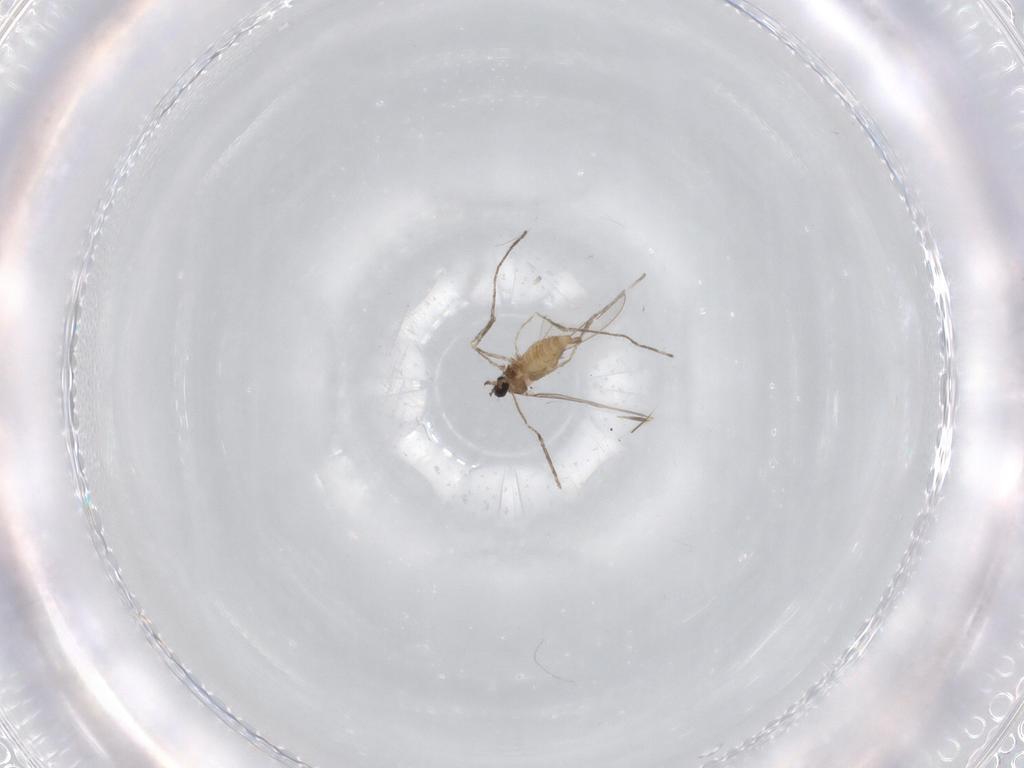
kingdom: Animalia
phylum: Arthropoda
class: Insecta
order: Diptera
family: Cecidomyiidae
